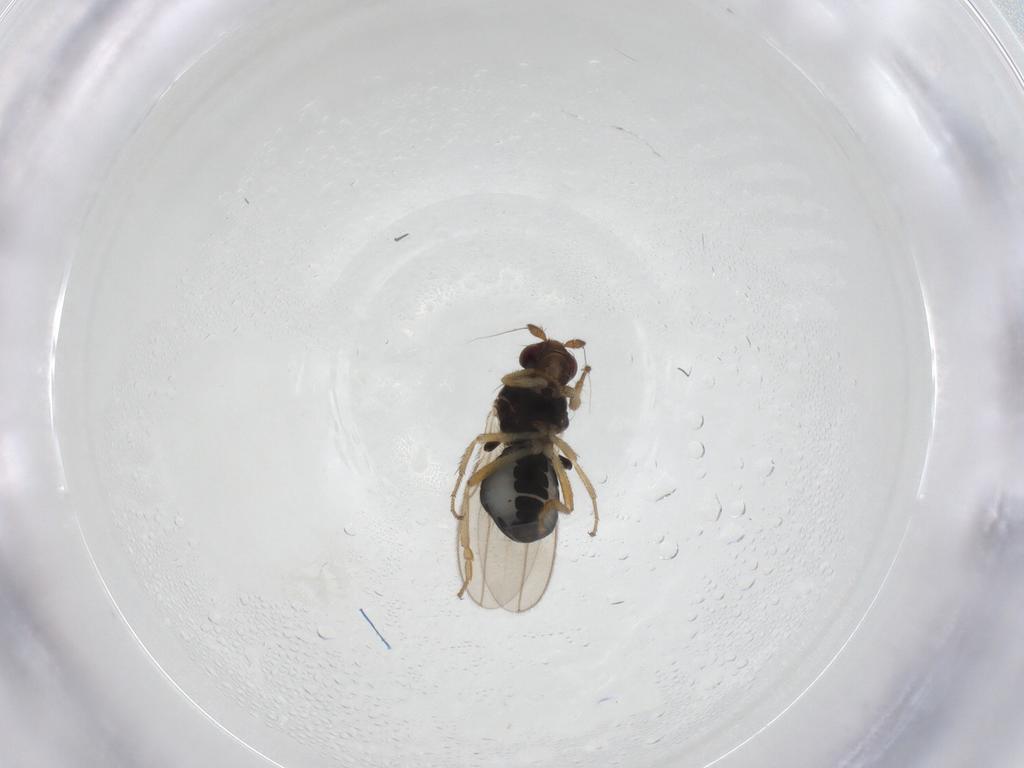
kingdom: Animalia
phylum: Arthropoda
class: Insecta
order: Diptera
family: Sphaeroceridae
